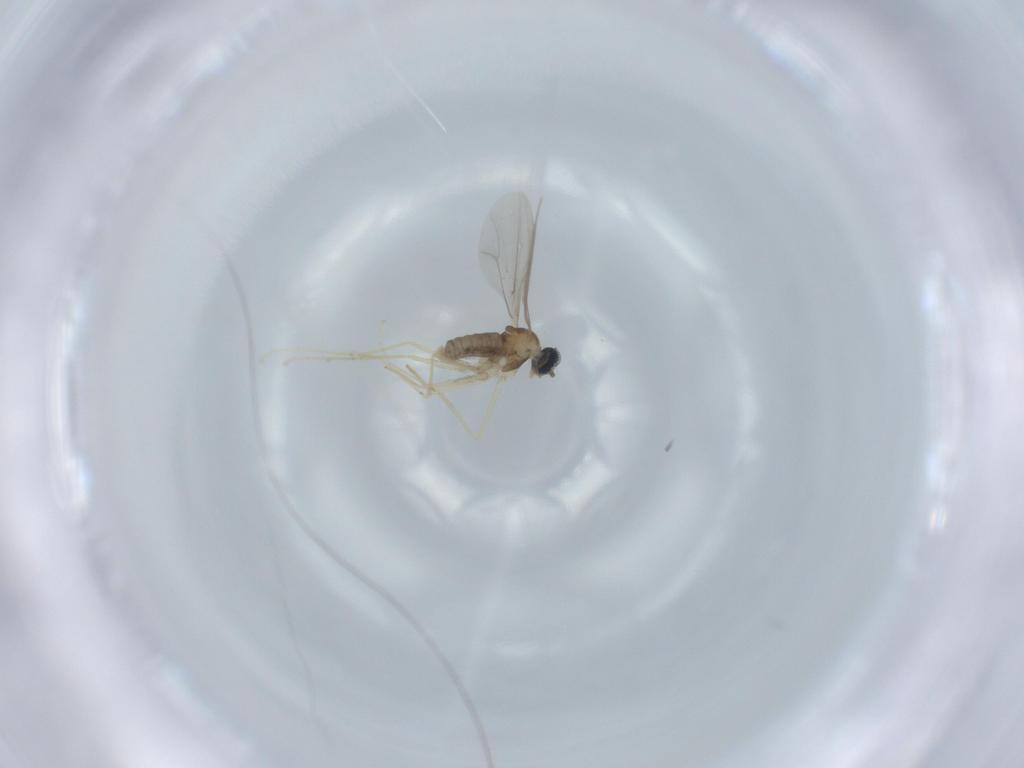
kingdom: Animalia
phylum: Arthropoda
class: Insecta
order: Diptera
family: Cecidomyiidae
